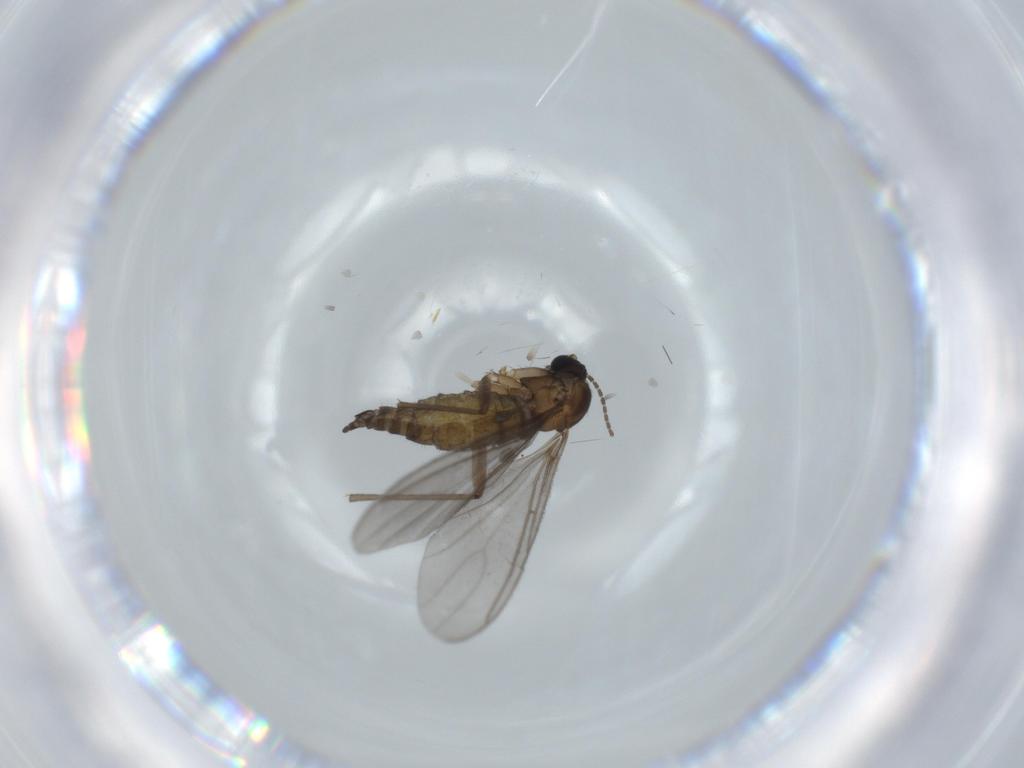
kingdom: Animalia
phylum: Arthropoda
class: Insecta
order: Diptera
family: Sciaridae
